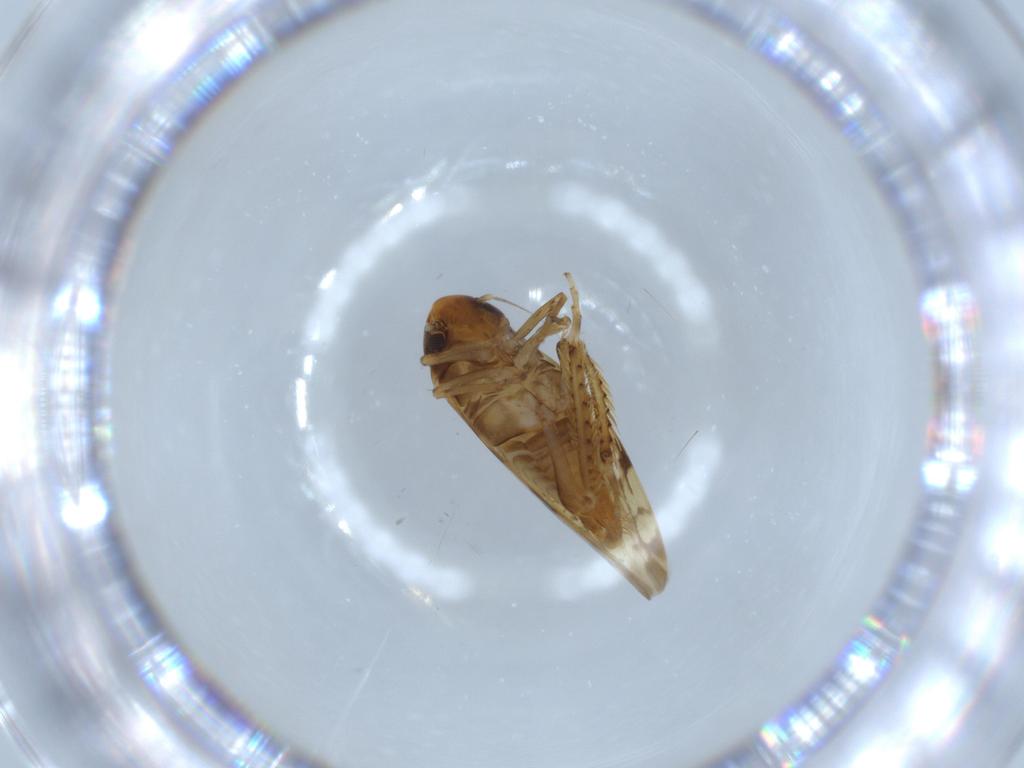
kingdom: Animalia
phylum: Arthropoda
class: Insecta
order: Hemiptera
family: Cicadellidae
